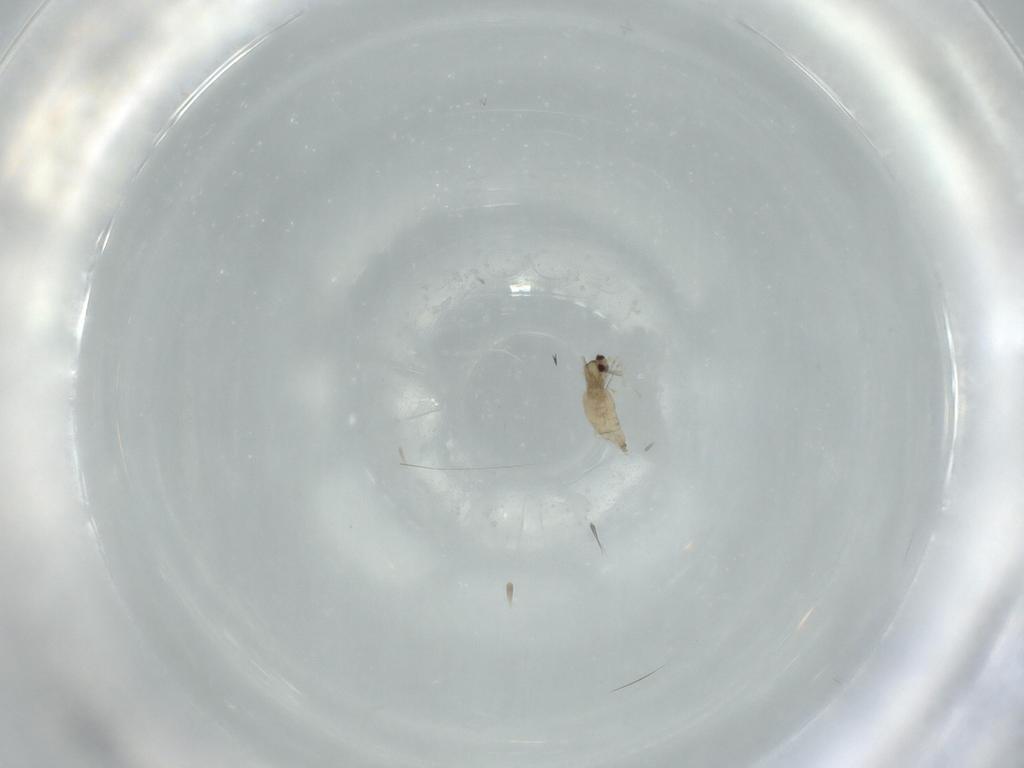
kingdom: Animalia
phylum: Arthropoda
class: Insecta
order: Diptera
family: Cecidomyiidae
